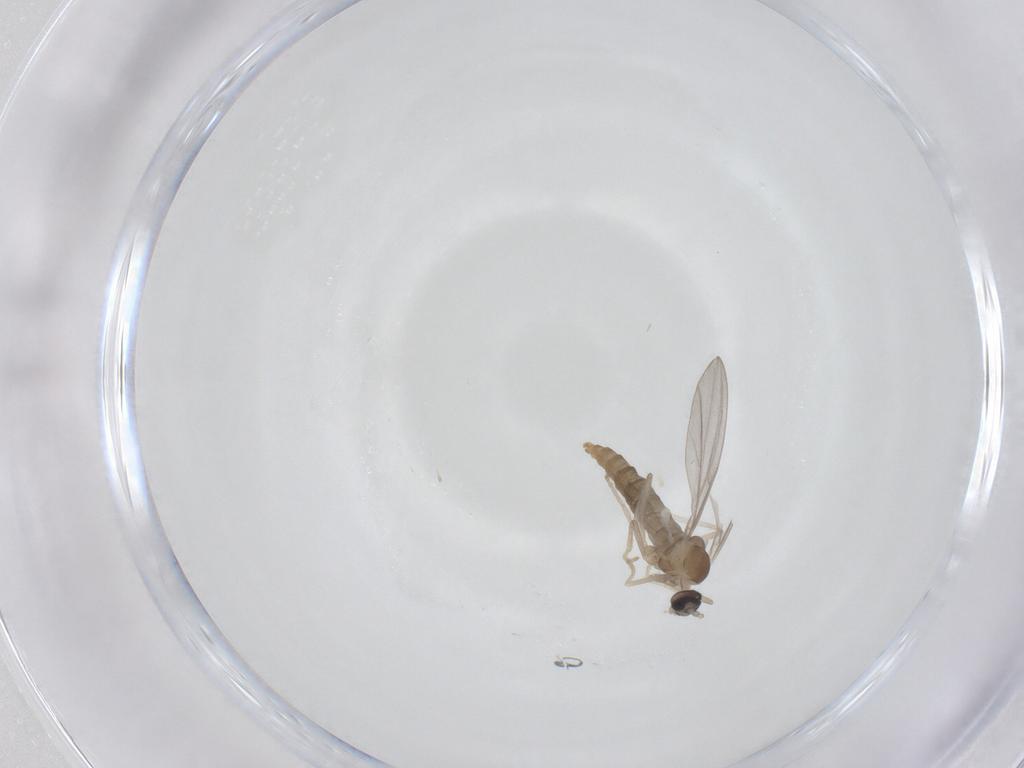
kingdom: Animalia
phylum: Arthropoda
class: Insecta
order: Diptera
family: Cecidomyiidae
